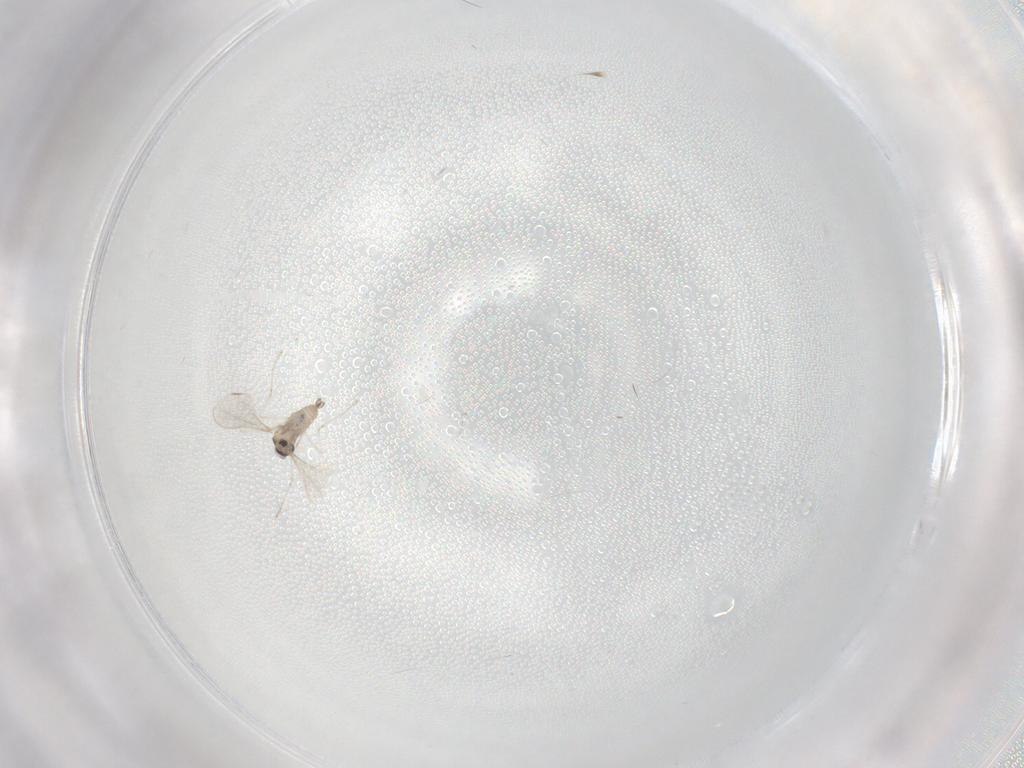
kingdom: Animalia
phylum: Arthropoda
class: Insecta
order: Diptera
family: Cecidomyiidae
